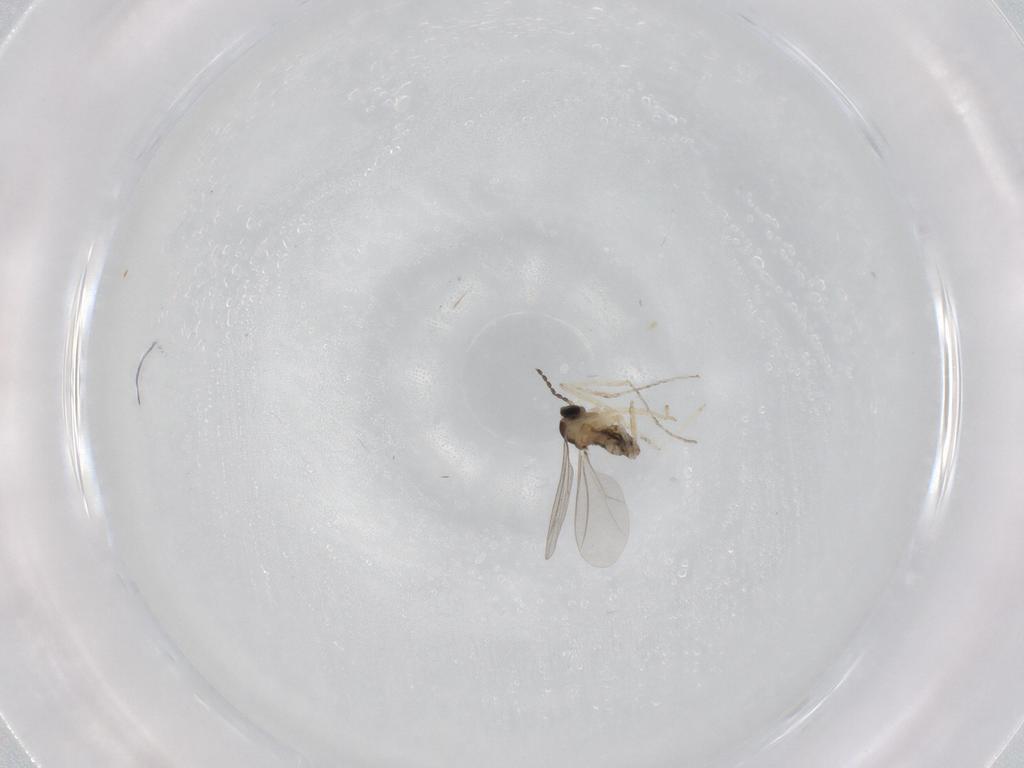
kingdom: Animalia
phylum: Arthropoda
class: Insecta
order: Diptera
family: Cecidomyiidae
